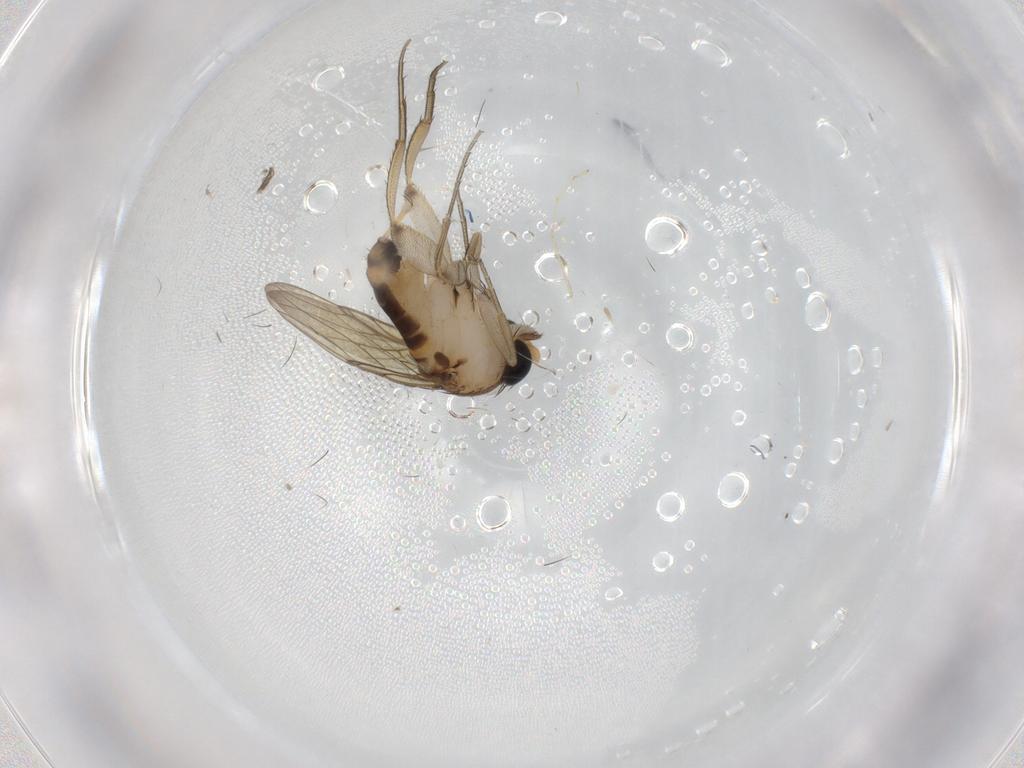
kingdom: Animalia
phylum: Arthropoda
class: Insecta
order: Diptera
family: Phoridae
